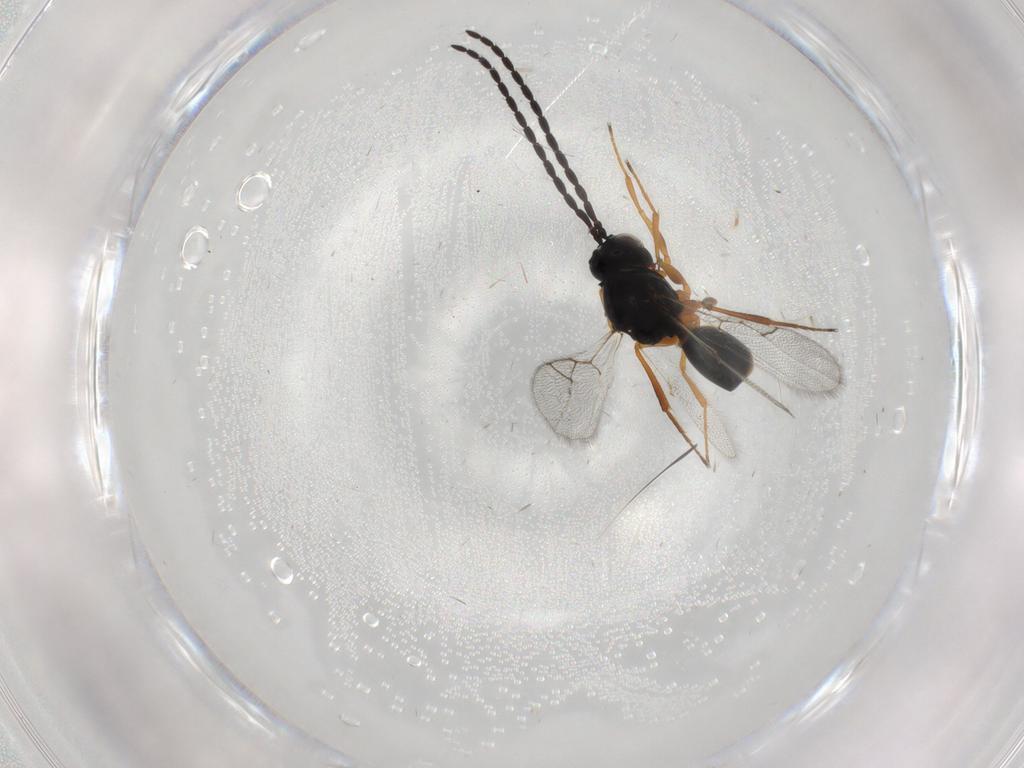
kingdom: Animalia
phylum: Arthropoda
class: Insecta
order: Hymenoptera
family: Figitidae
